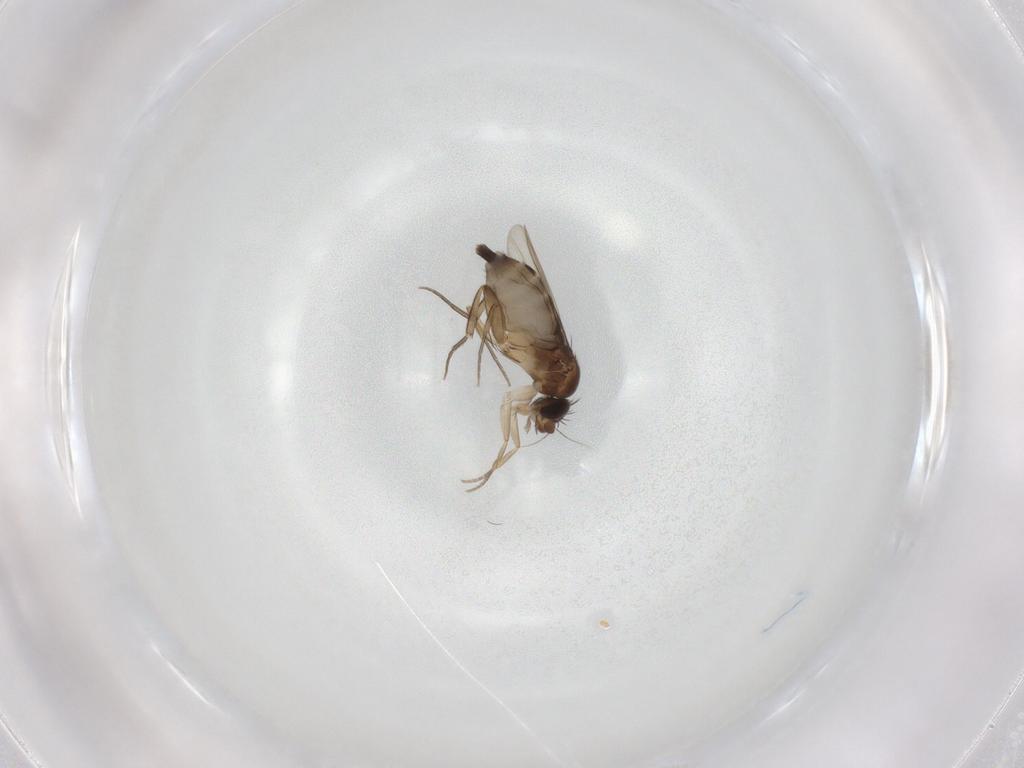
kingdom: Animalia
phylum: Arthropoda
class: Insecta
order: Diptera
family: Phoridae
